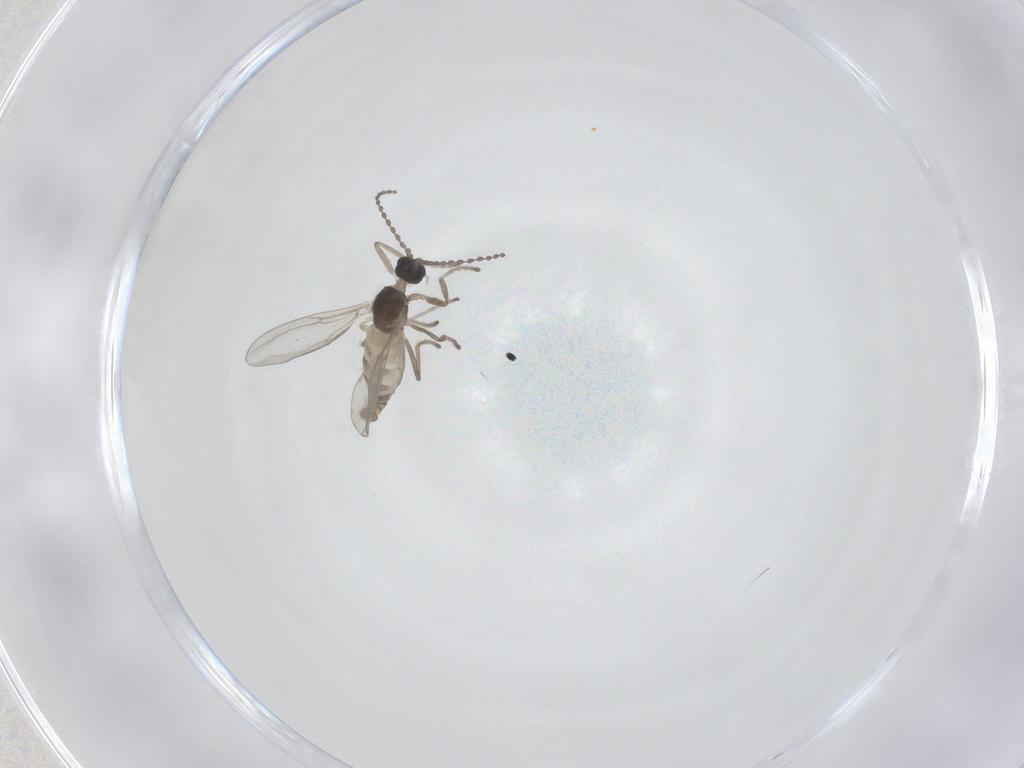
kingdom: Animalia
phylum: Arthropoda
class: Insecta
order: Diptera
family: Cecidomyiidae
